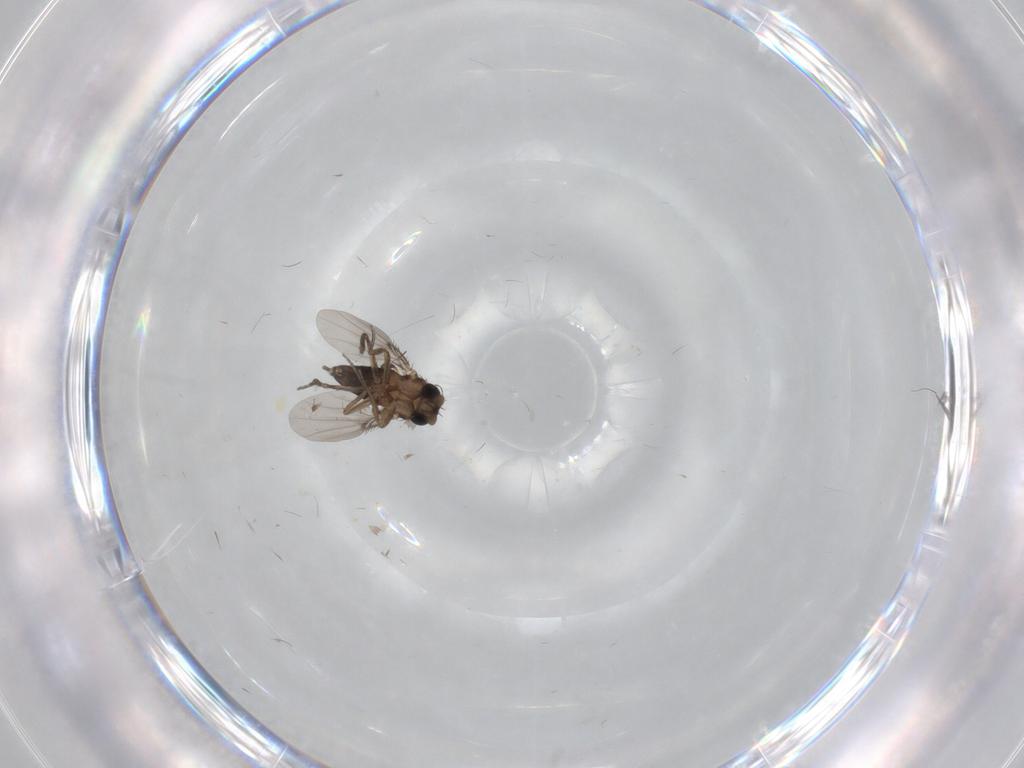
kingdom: Animalia
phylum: Arthropoda
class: Insecta
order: Diptera
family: Phoridae
